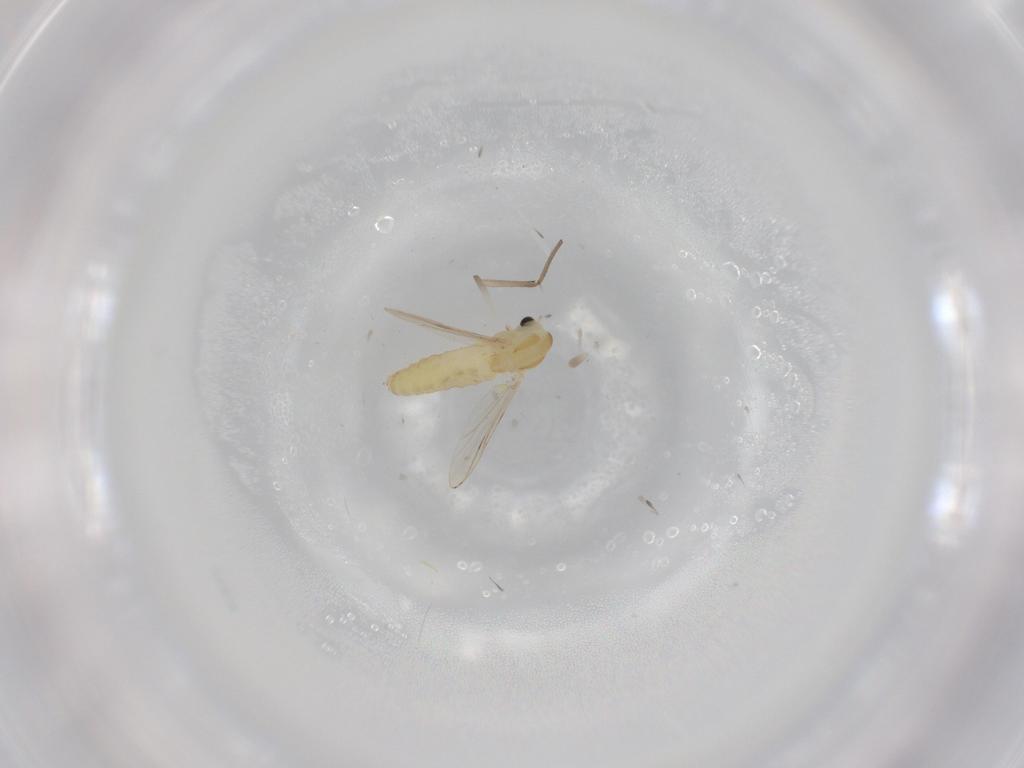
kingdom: Animalia
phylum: Arthropoda
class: Insecta
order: Diptera
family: Chironomidae
